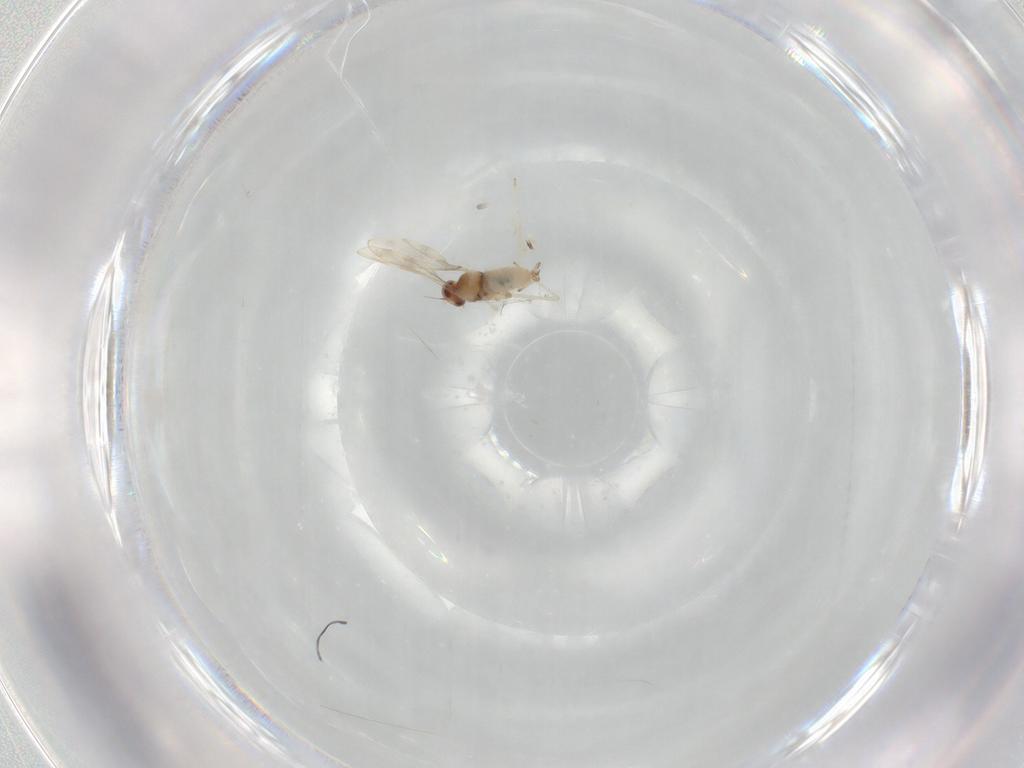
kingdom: Animalia
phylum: Arthropoda
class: Insecta
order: Diptera
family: Cecidomyiidae
